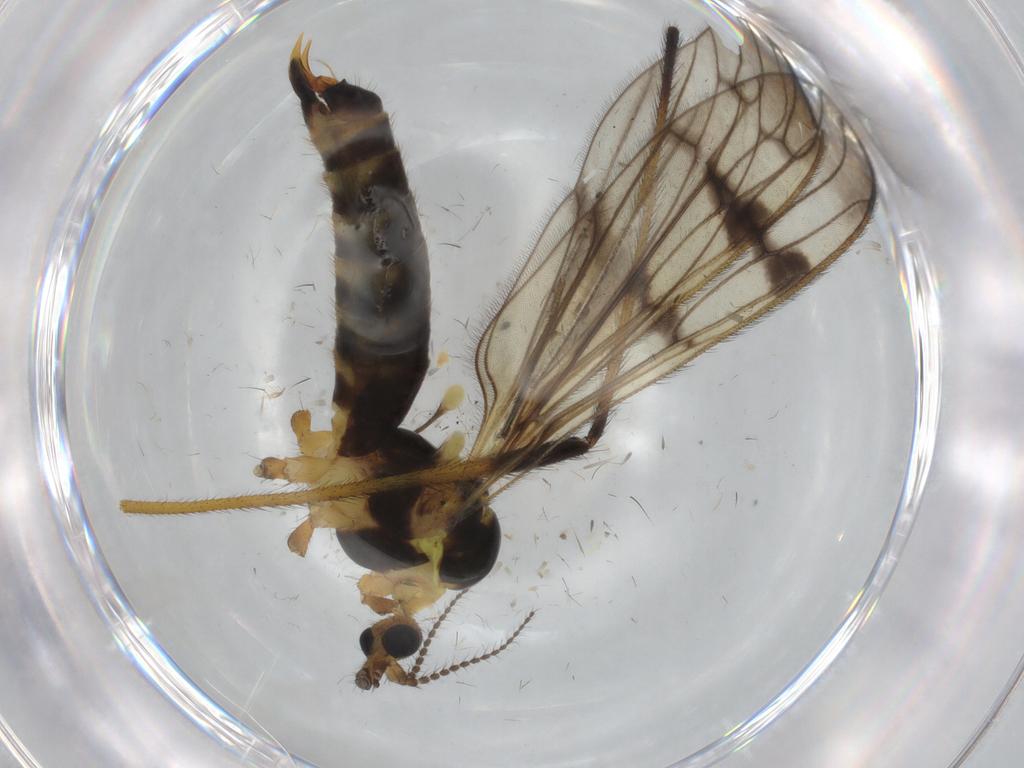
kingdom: Animalia
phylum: Arthropoda
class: Insecta
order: Diptera
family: Limoniidae
